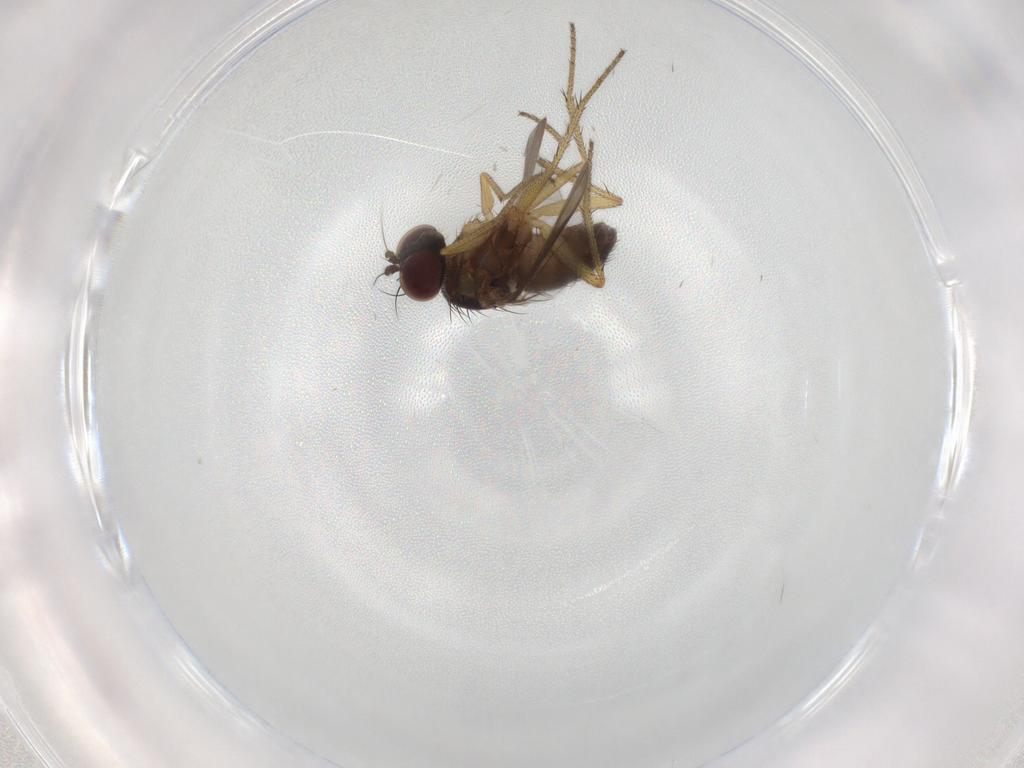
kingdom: Animalia
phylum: Arthropoda
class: Insecta
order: Diptera
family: Dolichopodidae
